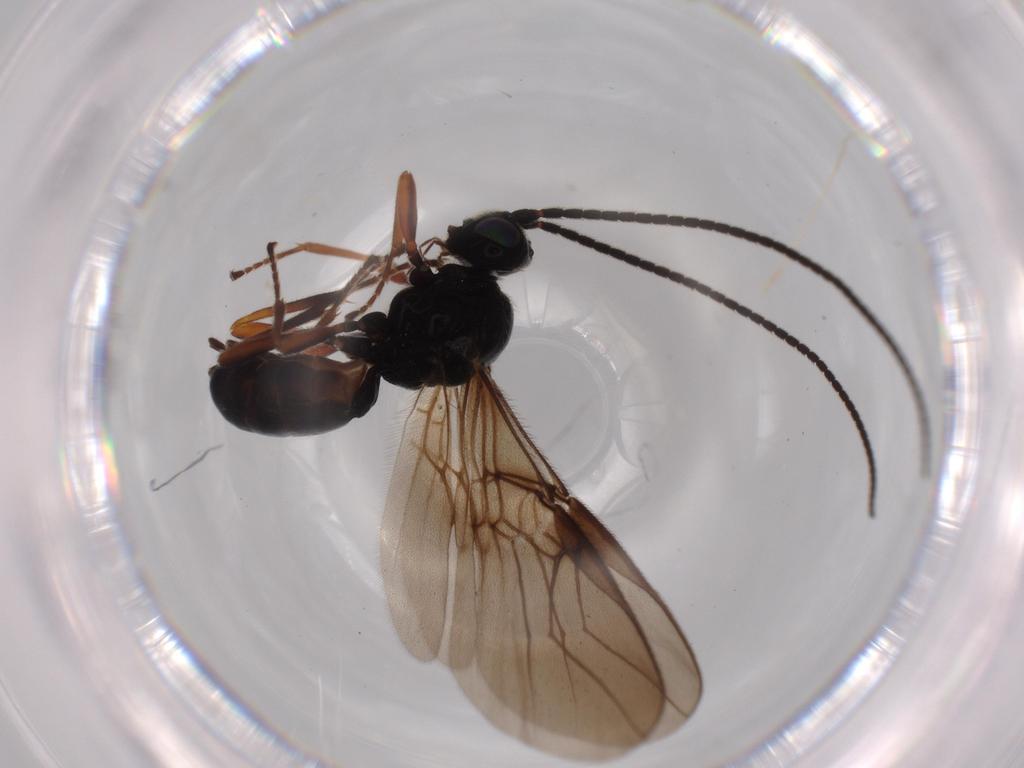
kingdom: Animalia
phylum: Arthropoda
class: Insecta
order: Hymenoptera
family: Braconidae
